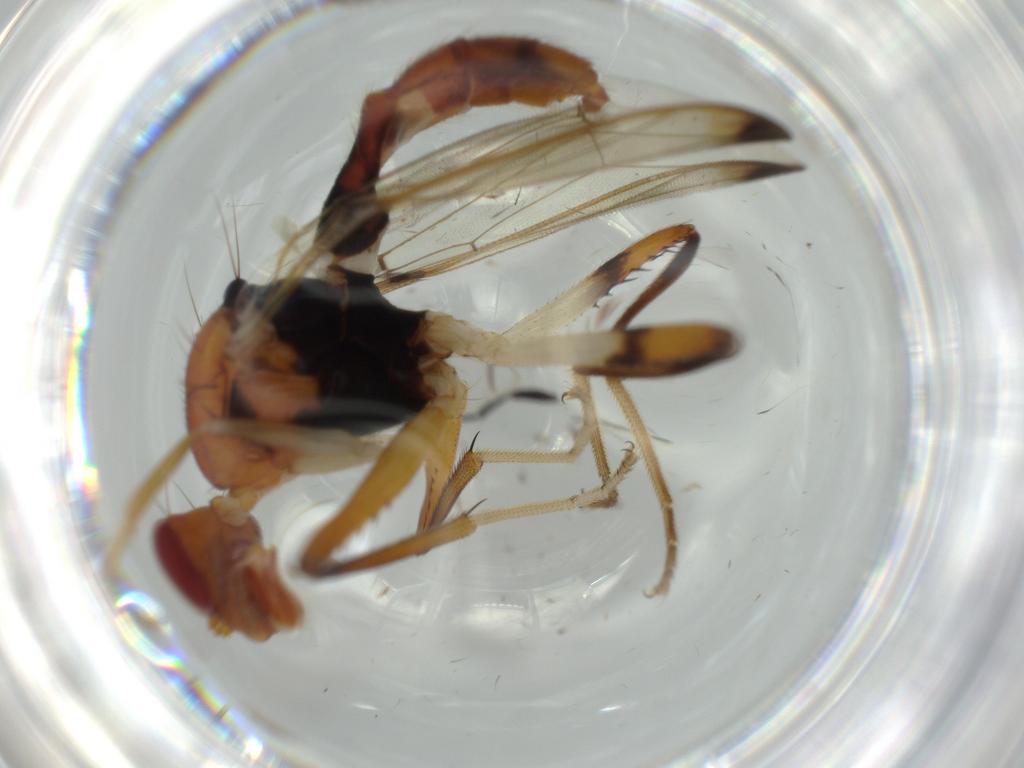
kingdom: Animalia
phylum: Arthropoda
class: Insecta
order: Diptera
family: Richardiidae
